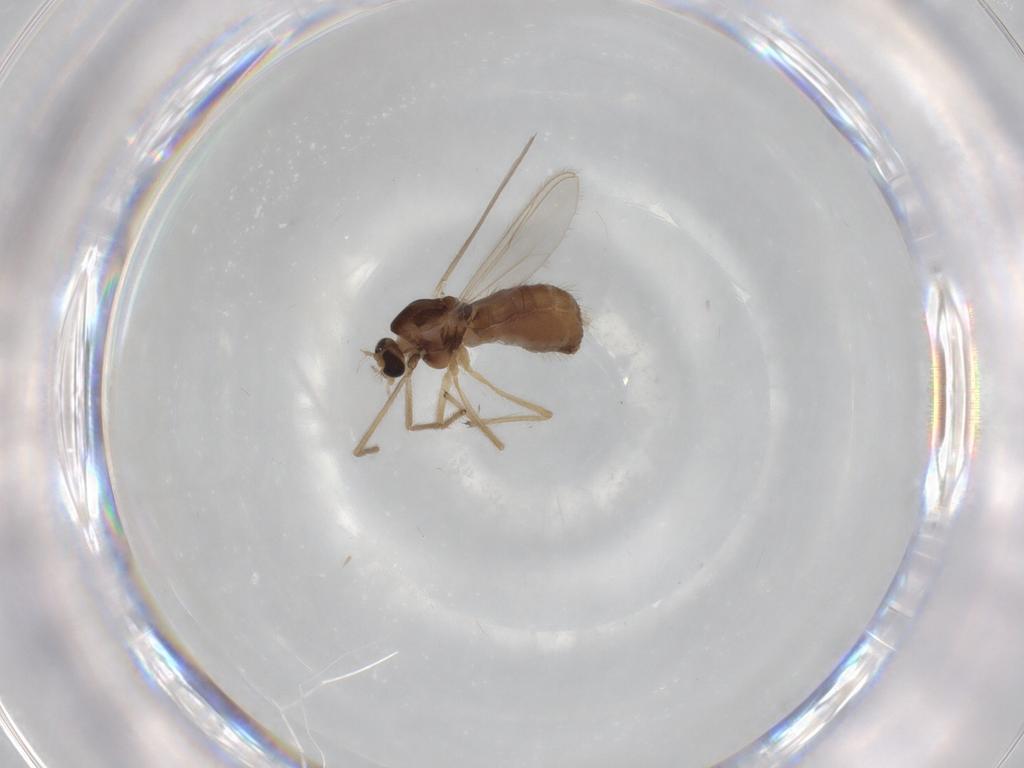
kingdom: Animalia
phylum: Arthropoda
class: Insecta
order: Diptera
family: Chironomidae
